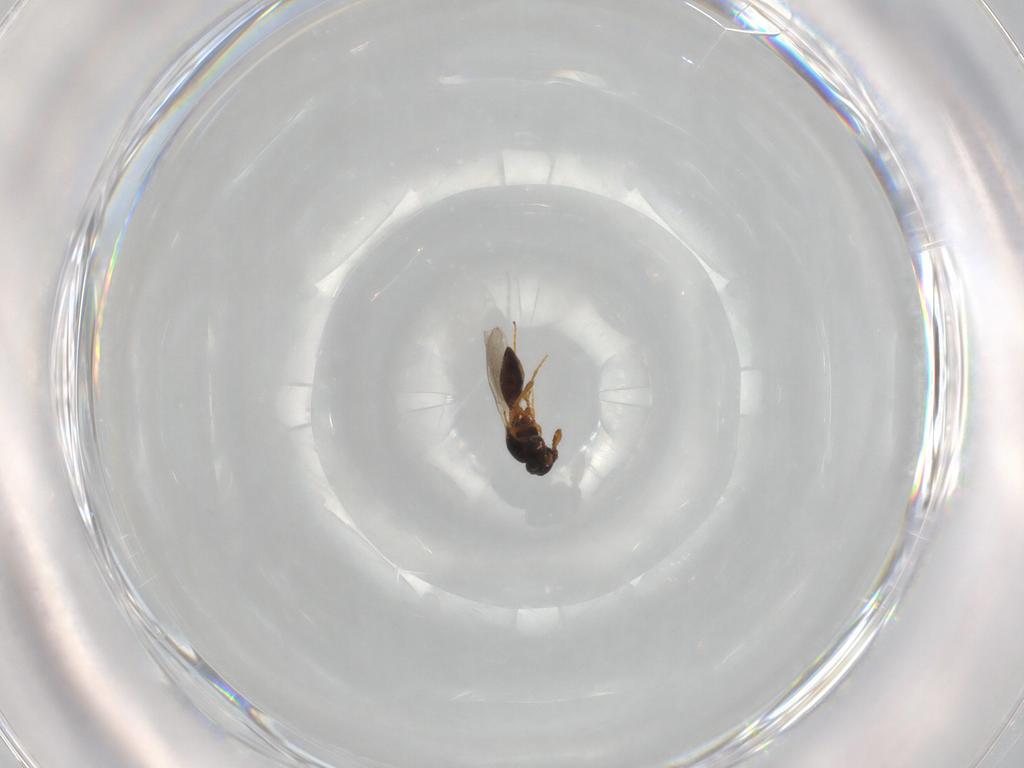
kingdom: Animalia
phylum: Arthropoda
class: Insecta
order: Hymenoptera
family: Platygastridae
